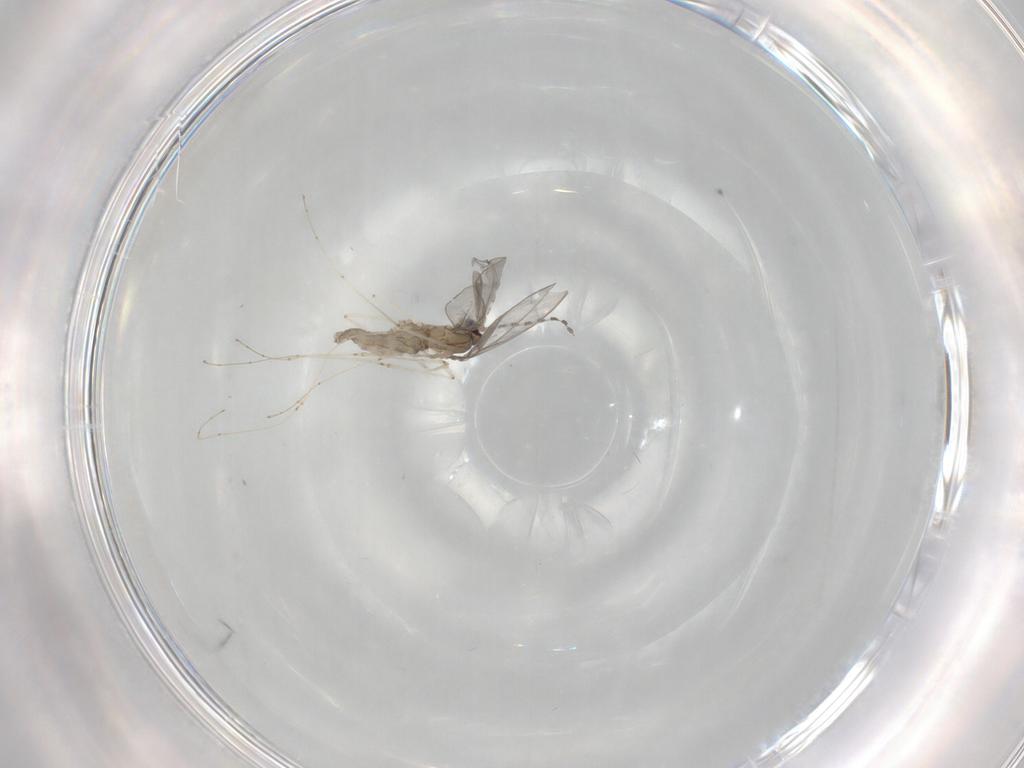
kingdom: Animalia
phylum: Arthropoda
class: Insecta
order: Diptera
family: Cecidomyiidae
